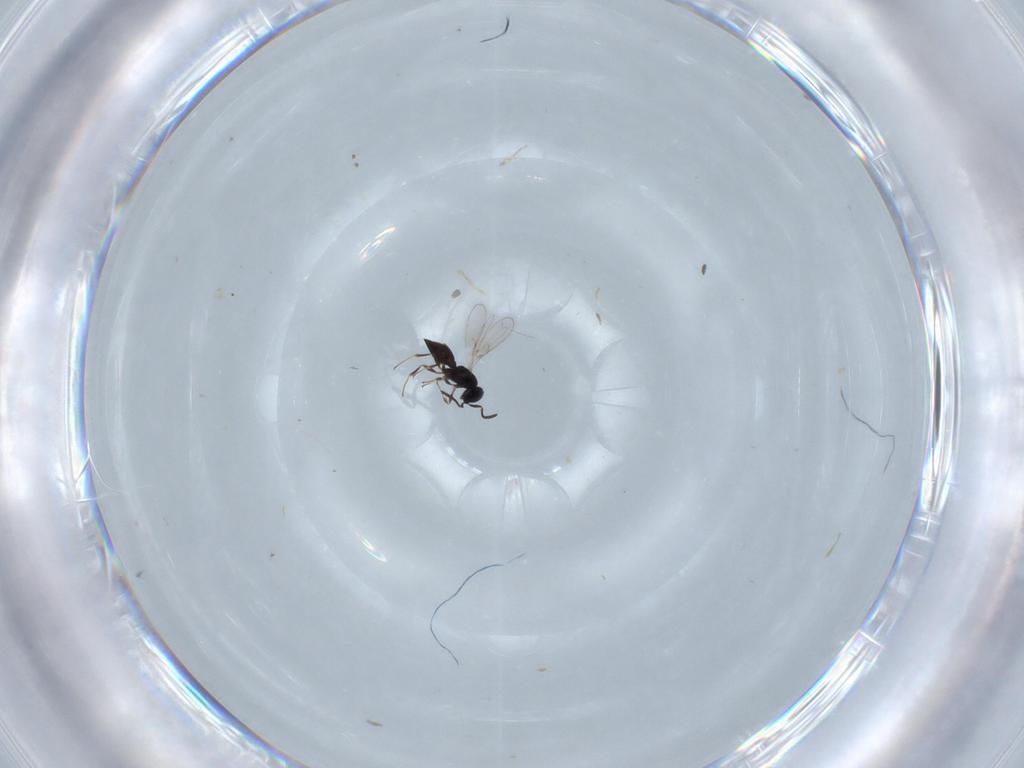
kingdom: Animalia
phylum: Arthropoda
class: Insecta
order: Hymenoptera
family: Scelionidae
